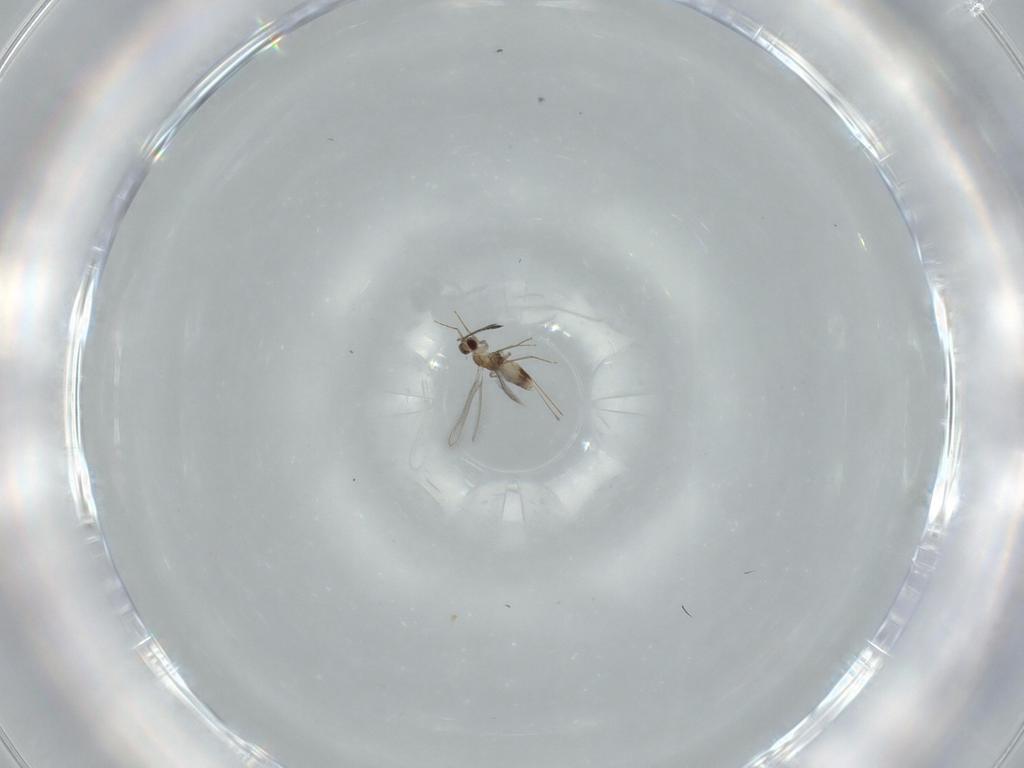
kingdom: Animalia
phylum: Arthropoda
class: Insecta
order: Hymenoptera
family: Mymaridae
